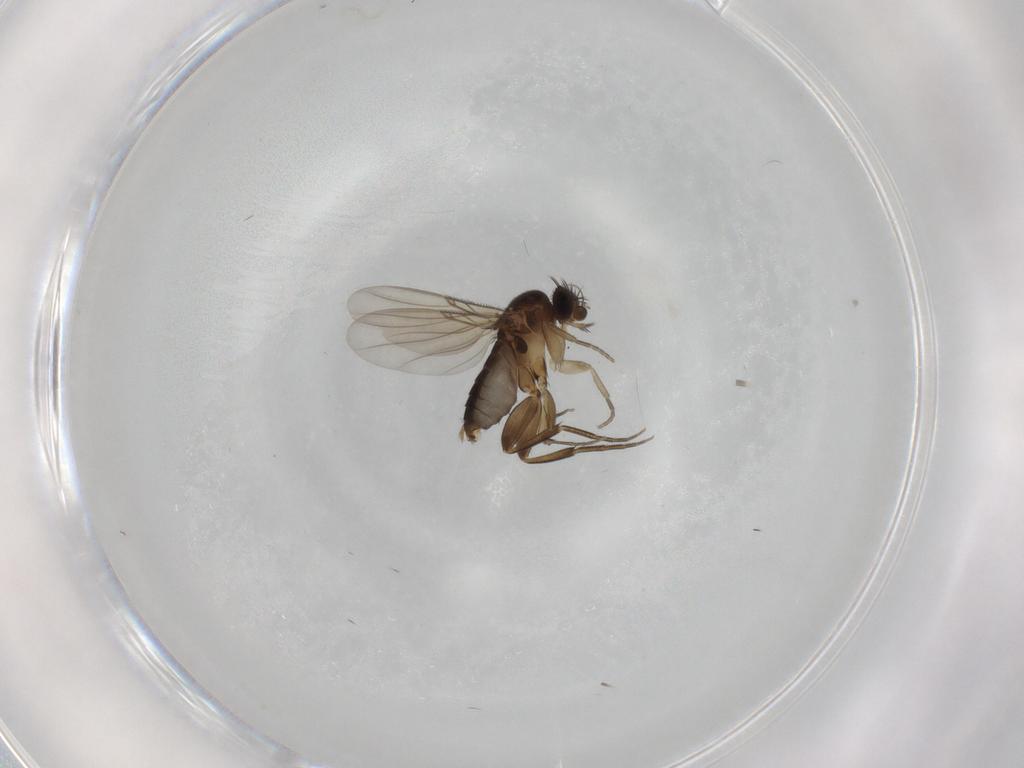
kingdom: Animalia
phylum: Arthropoda
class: Insecta
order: Diptera
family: Phoridae
